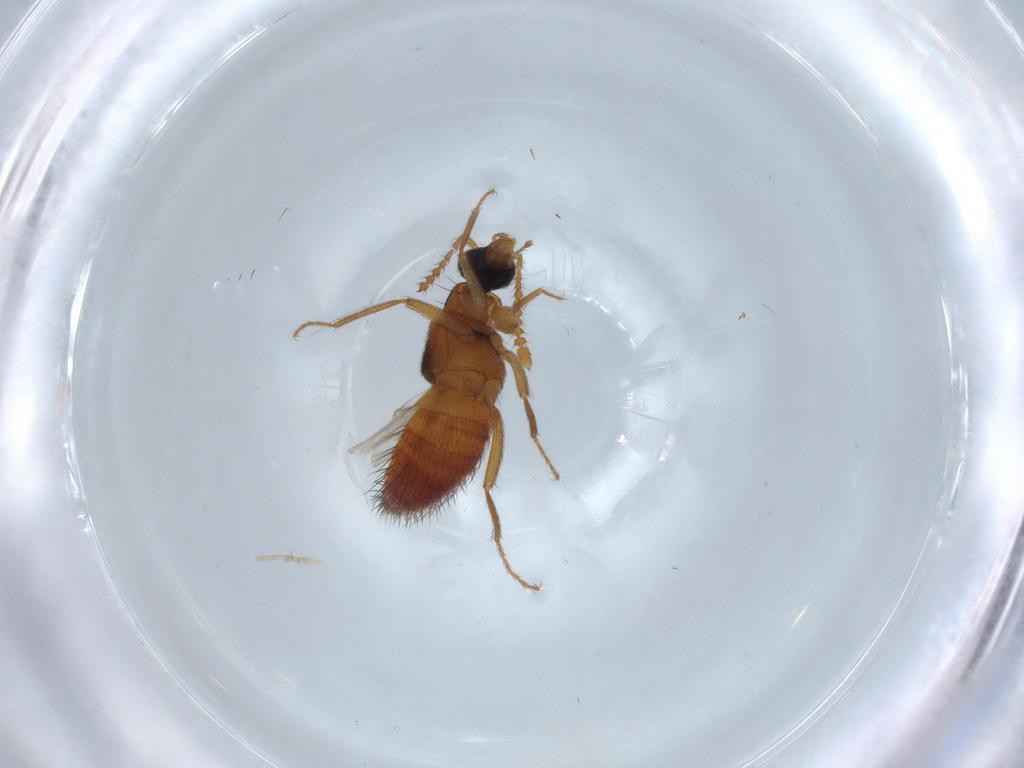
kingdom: Animalia
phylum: Arthropoda
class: Insecta
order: Coleoptera
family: Staphylinidae
